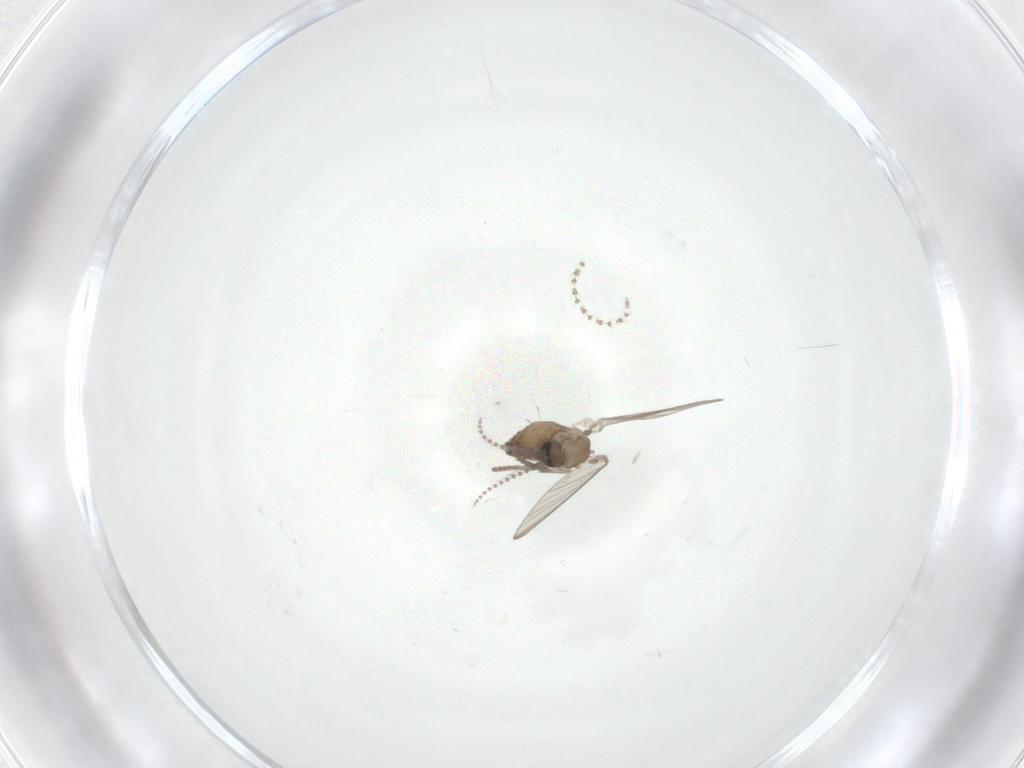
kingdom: Animalia
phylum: Arthropoda
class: Insecta
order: Diptera
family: Psychodidae
